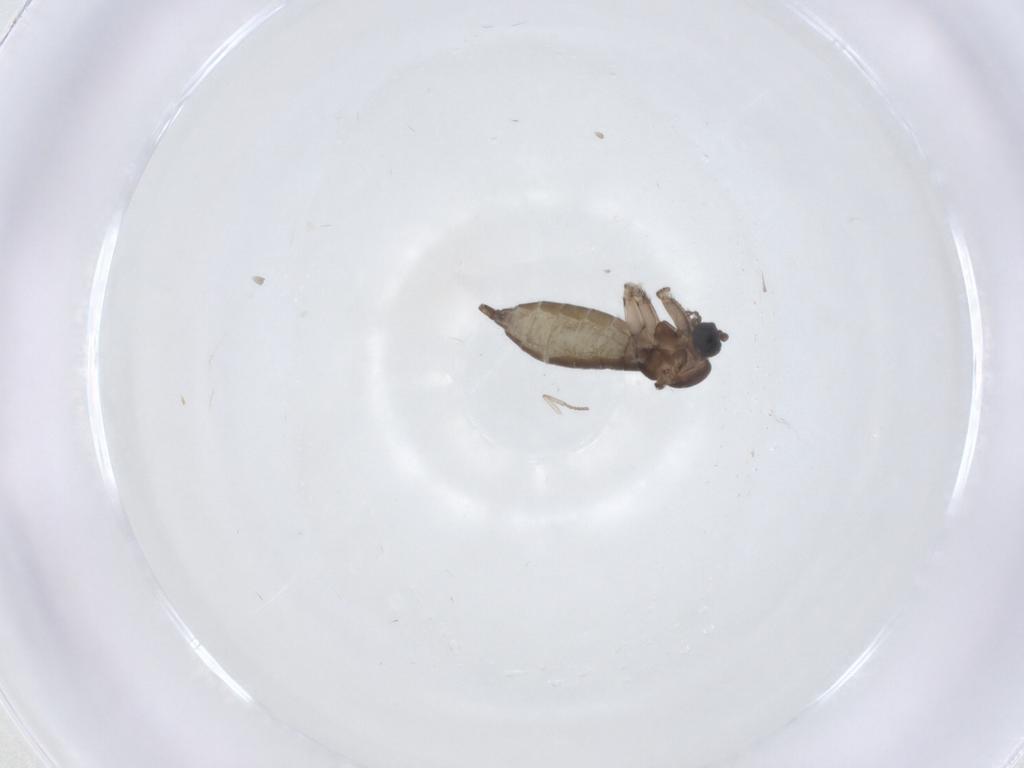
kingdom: Animalia
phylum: Arthropoda
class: Insecta
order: Diptera
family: Sciaridae
